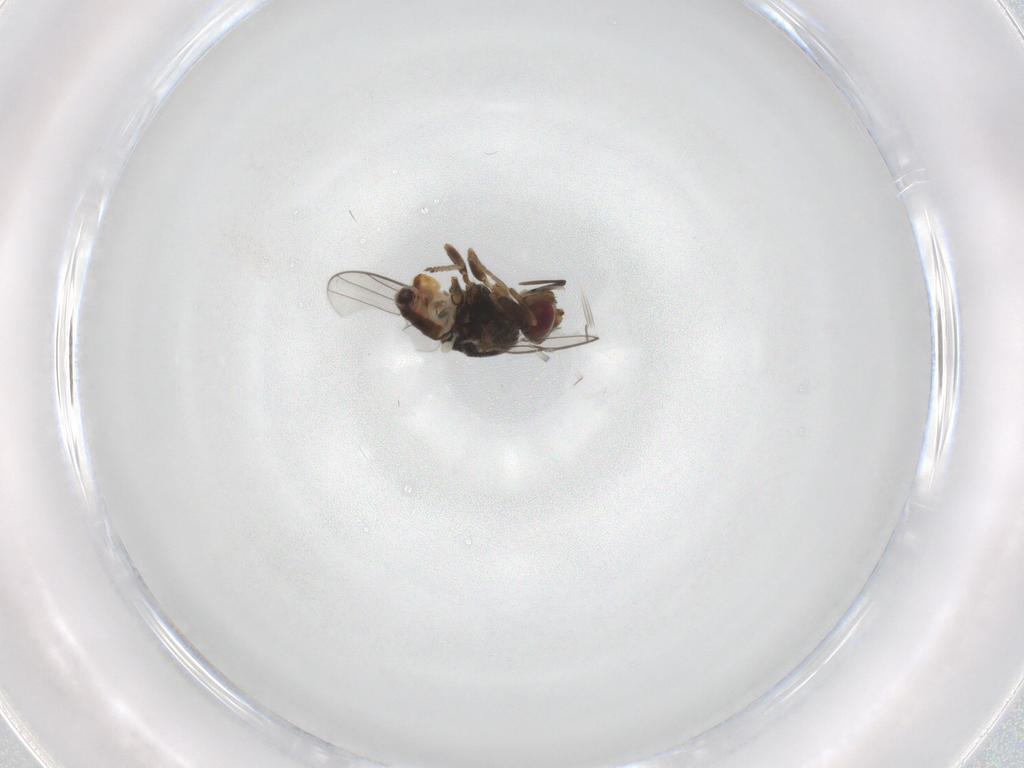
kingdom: Animalia
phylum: Arthropoda
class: Insecta
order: Diptera
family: Chloropidae
